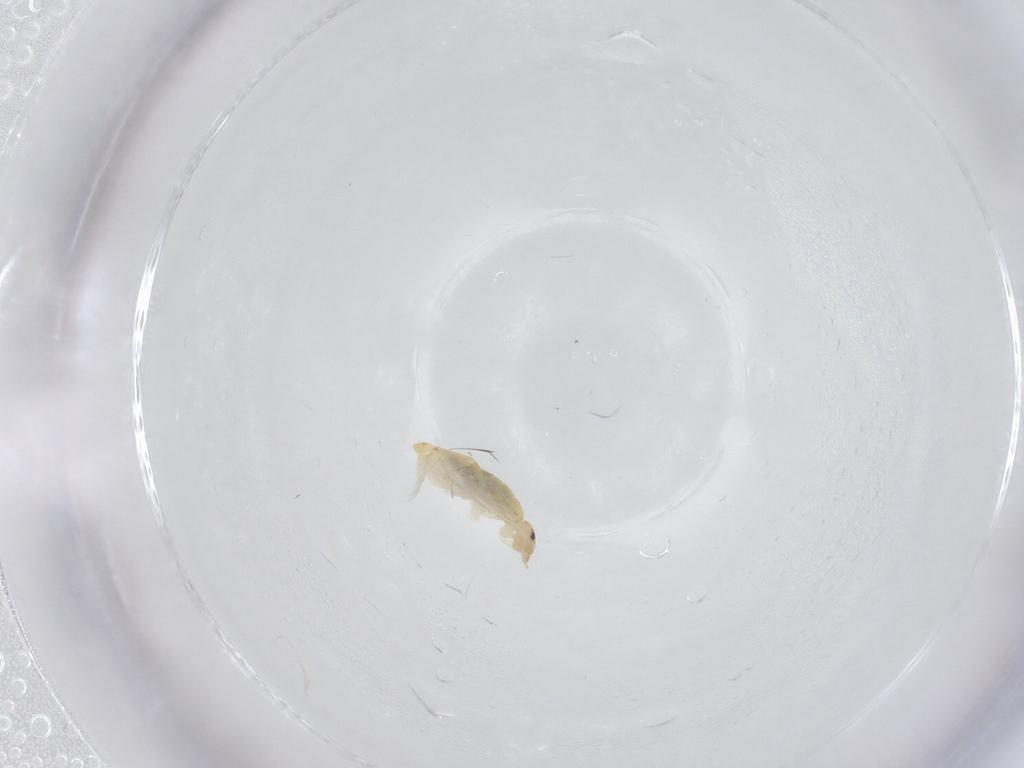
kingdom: Animalia
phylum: Arthropoda
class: Collembola
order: Entomobryomorpha
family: Entomobryidae
